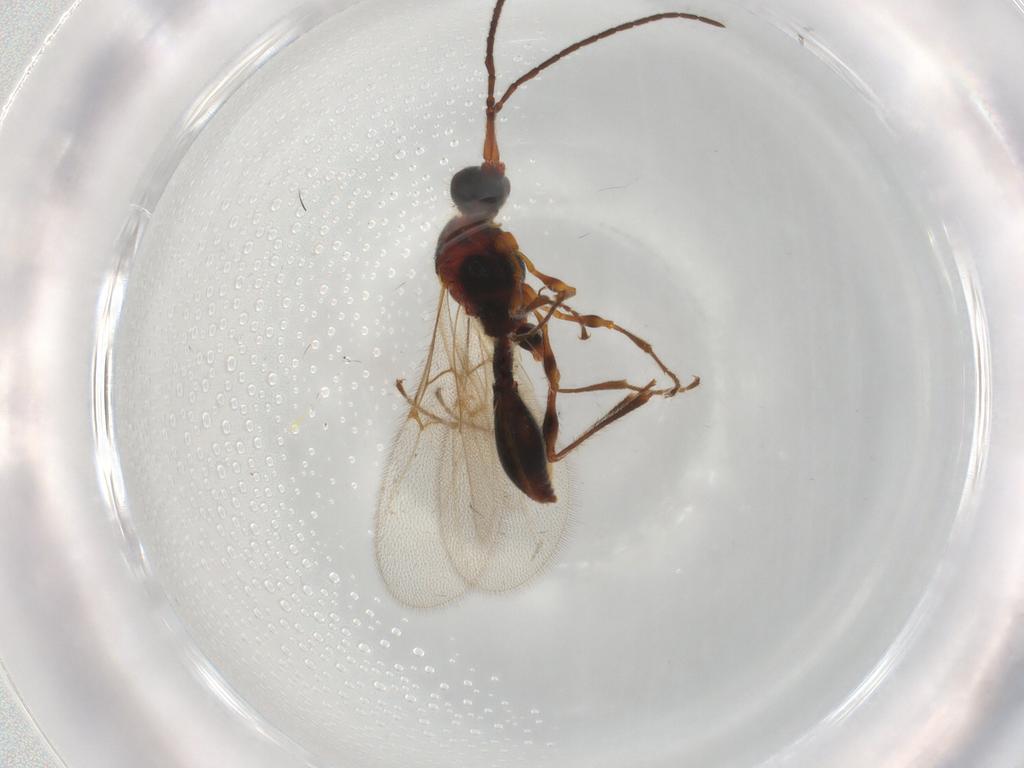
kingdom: Animalia
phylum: Arthropoda
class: Insecta
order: Hymenoptera
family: Diapriidae
